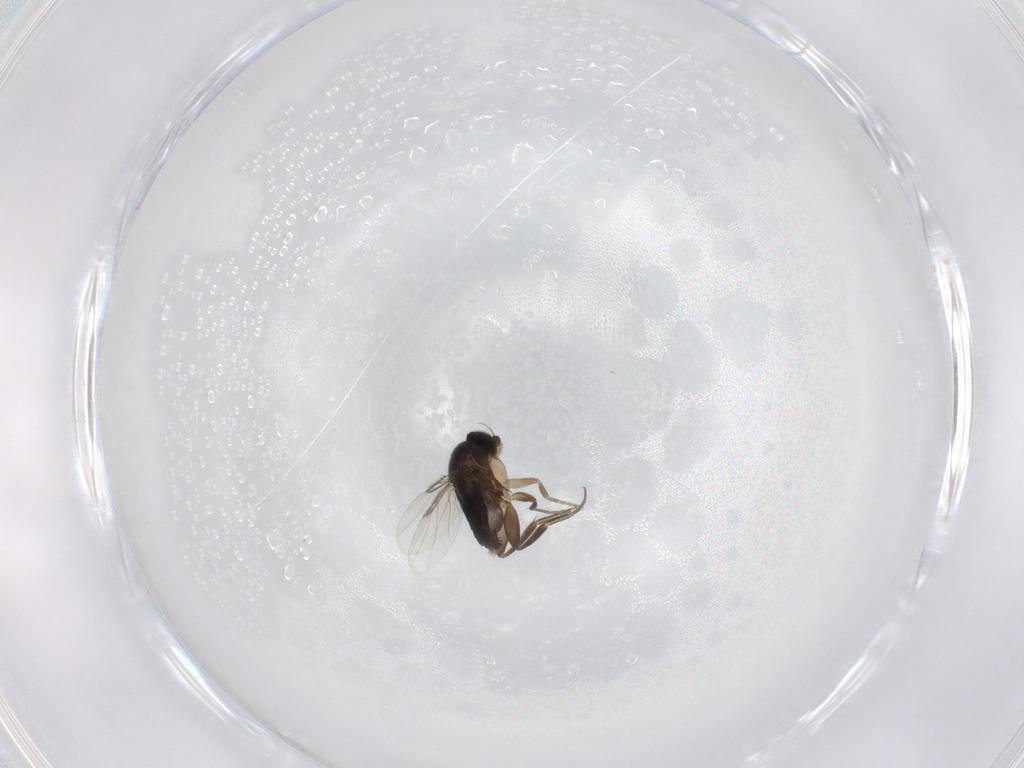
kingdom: Animalia
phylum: Arthropoda
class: Insecta
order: Diptera
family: Phoridae
